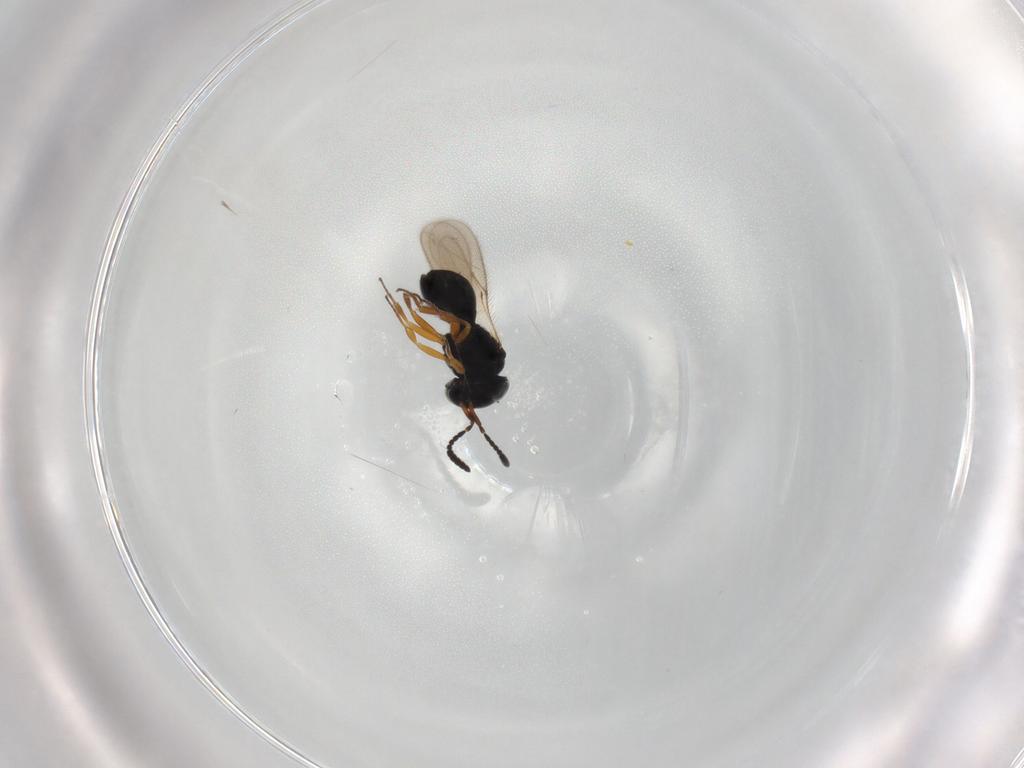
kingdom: Animalia
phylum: Arthropoda
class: Insecta
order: Hymenoptera
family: Scelionidae
